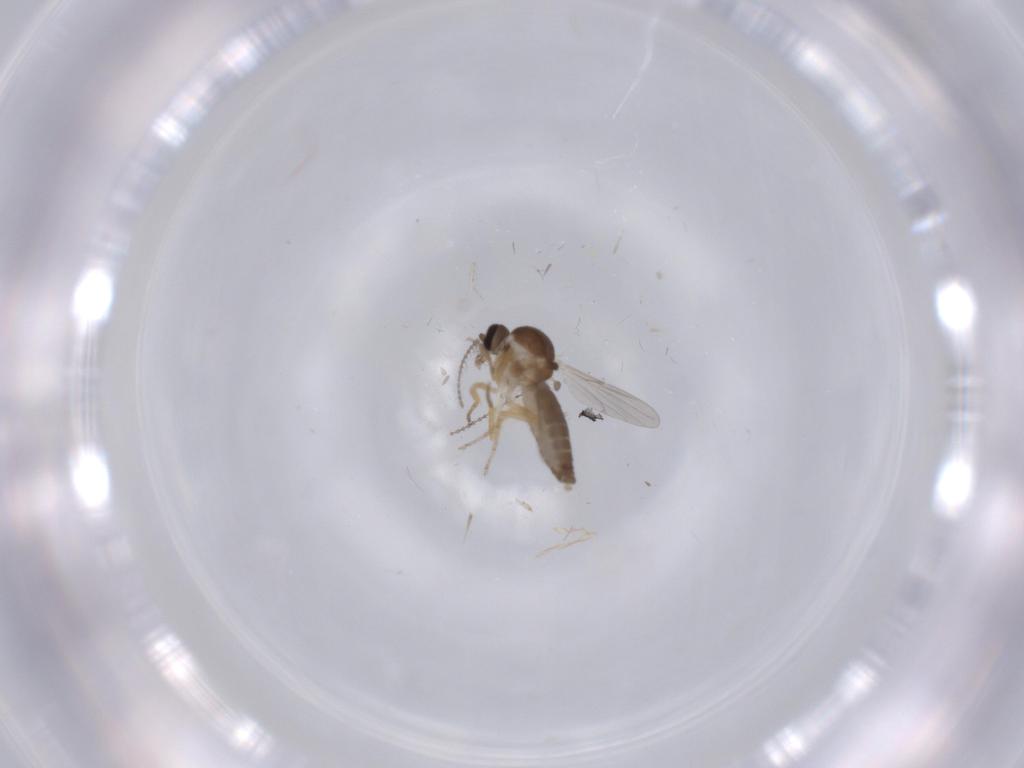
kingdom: Animalia
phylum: Arthropoda
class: Insecta
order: Diptera
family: Ceratopogonidae
